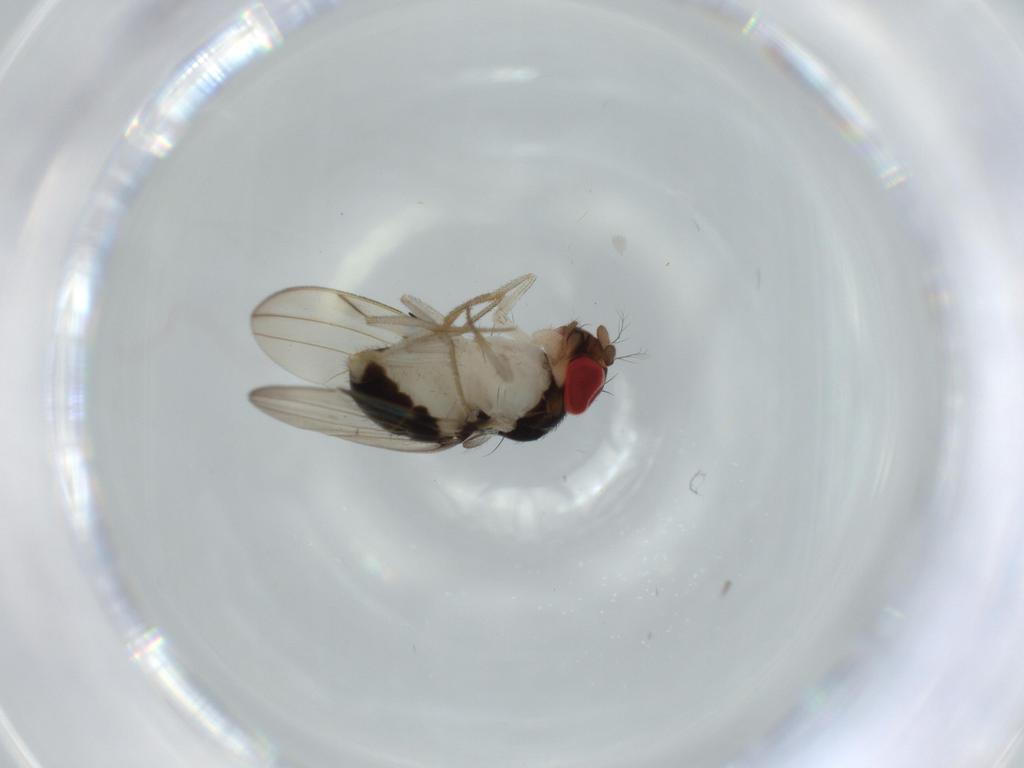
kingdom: Animalia
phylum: Arthropoda
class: Insecta
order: Diptera
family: Drosophilidae
